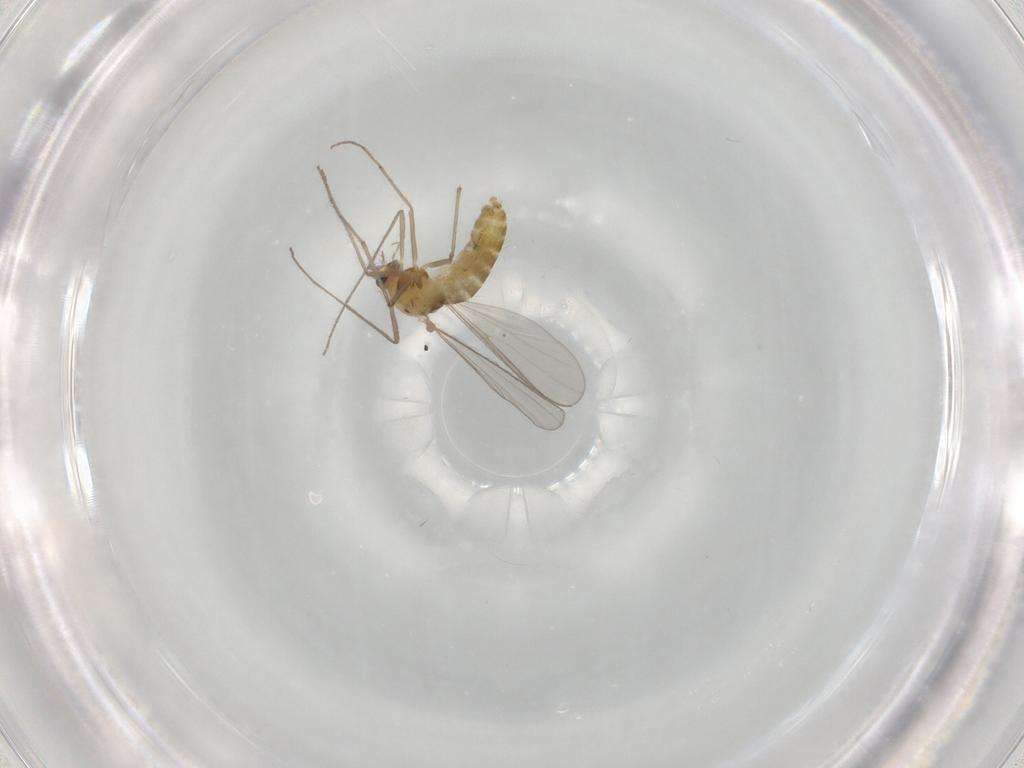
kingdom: Animalia
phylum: Arthropoda
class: Insecta
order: Diptera
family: Chironomidae
